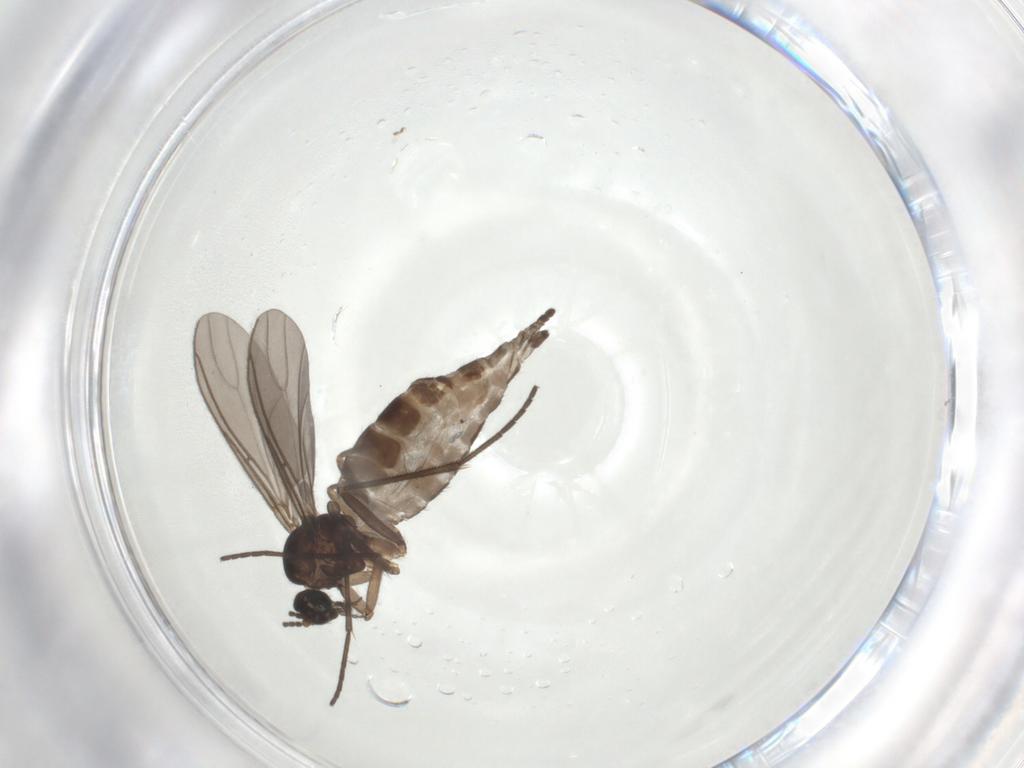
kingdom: Animalia
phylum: Arthropoda
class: Insecta
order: Diptera
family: Sciaridae
